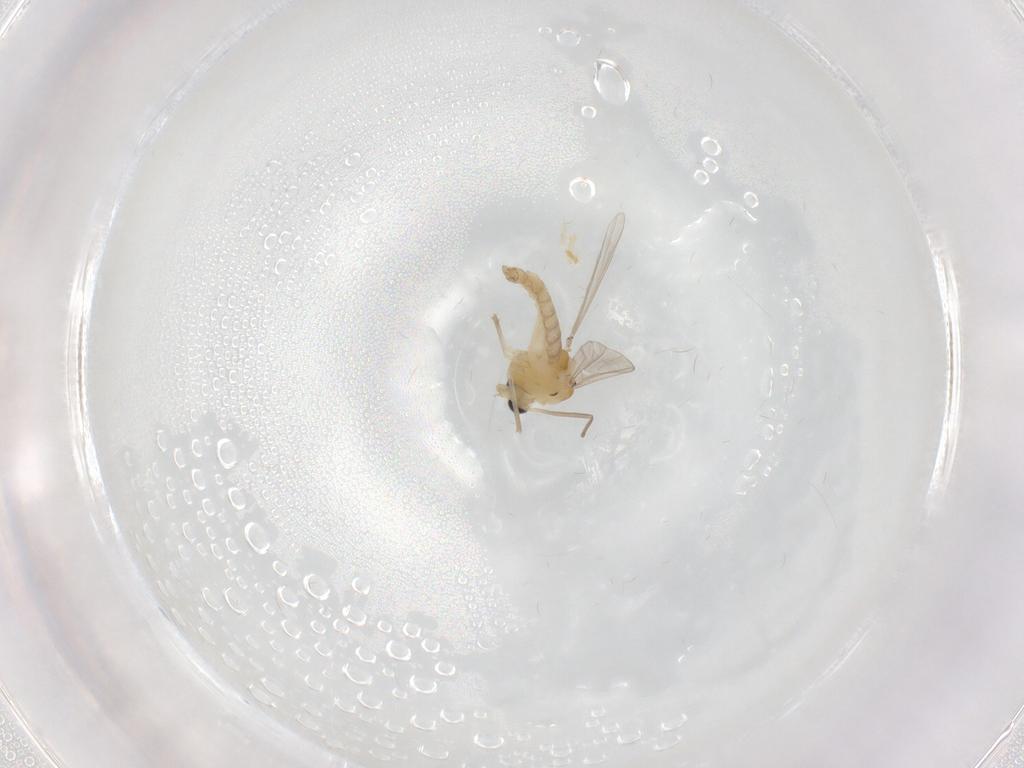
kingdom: Animalia
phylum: Arthropoda
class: Insecta
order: Diptera
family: Chironomidae
